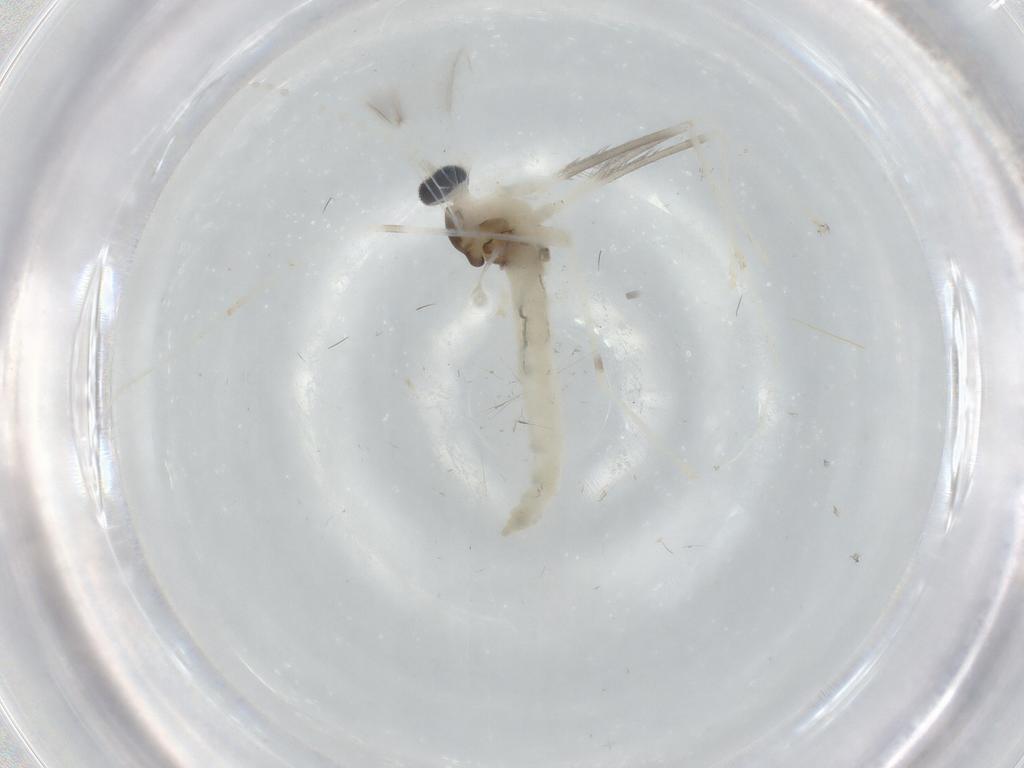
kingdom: Animalia
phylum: Arthropoda
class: Insecta
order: Diptera
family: Cecidomyiidae
